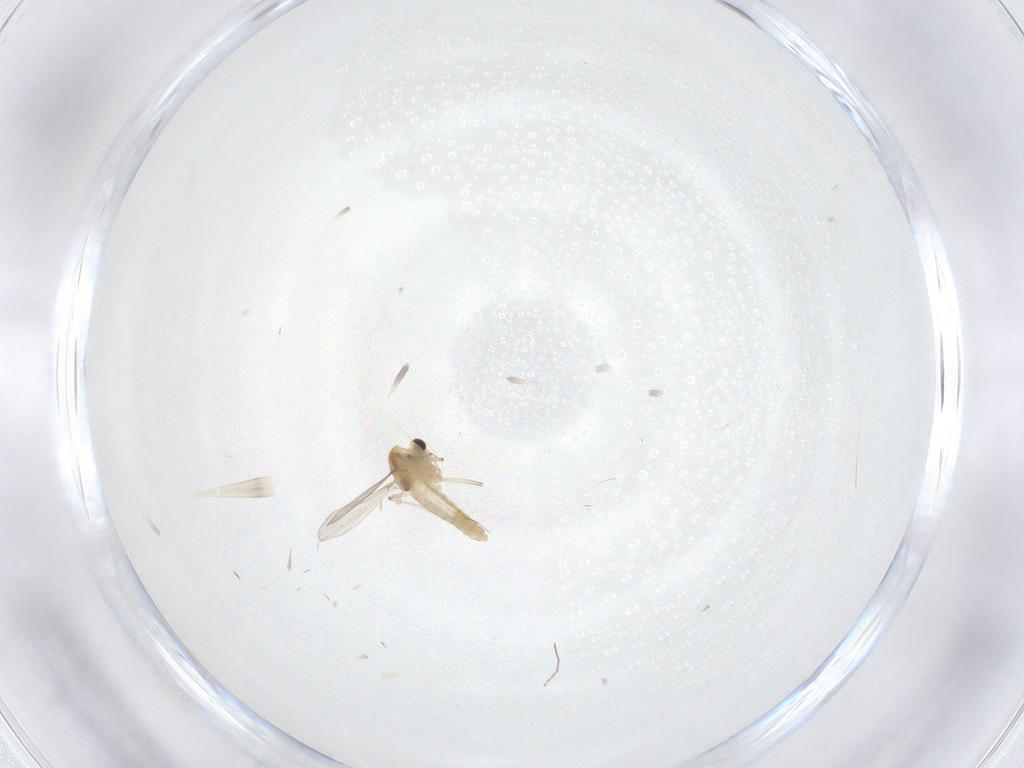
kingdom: Animalia
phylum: Arthropoda
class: Insecta
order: Diptera
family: Chironomidae
